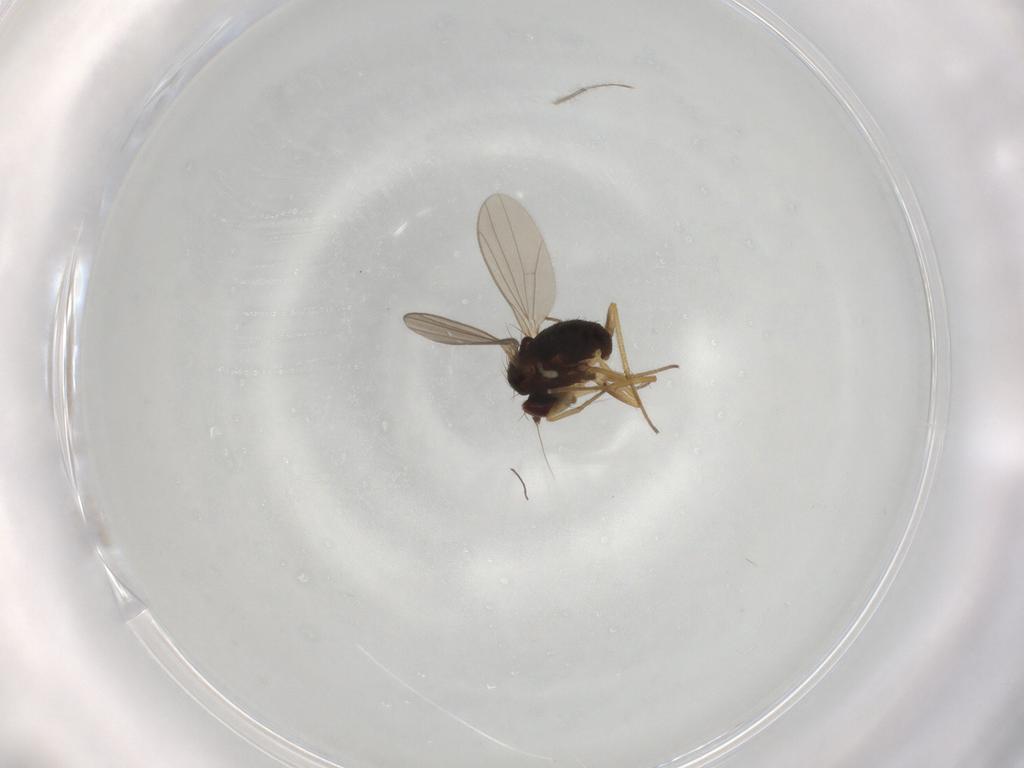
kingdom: Animalia
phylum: Arthropoda
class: Insecta
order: Diptera
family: Dolichopodidae
